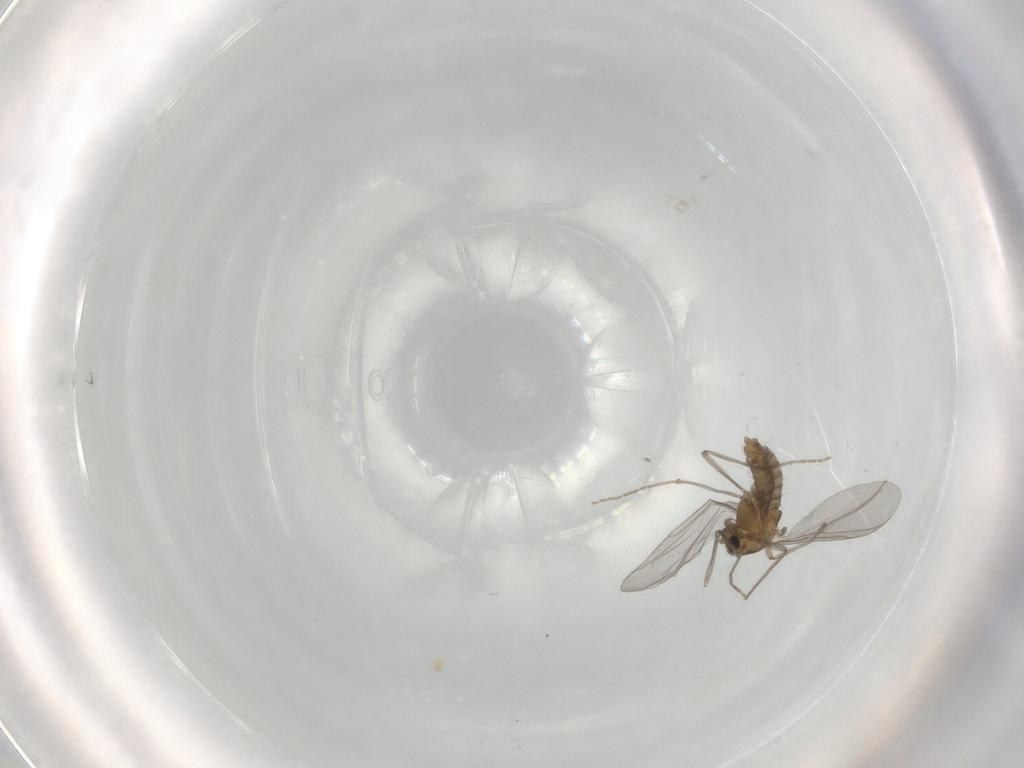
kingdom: Animalia
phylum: Arthropoda
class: Insecta
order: Diptera
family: Chironomidae
